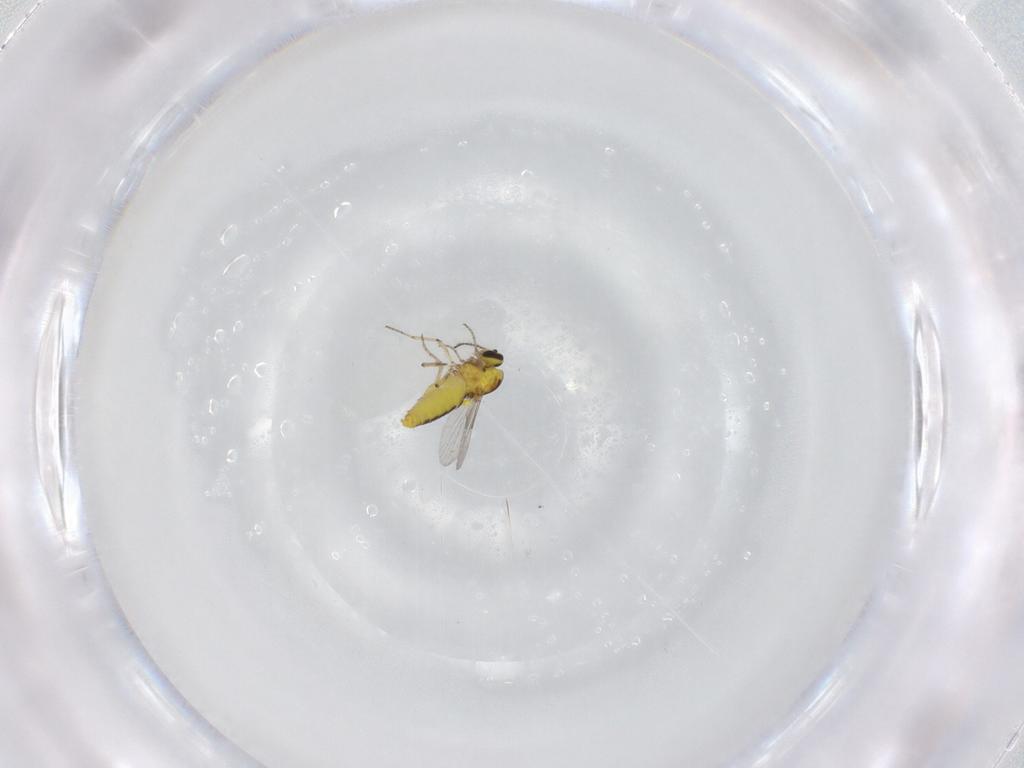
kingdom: Animalia
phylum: Arthropoda
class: Insecta
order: Diptera
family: Ceratopogonidae
